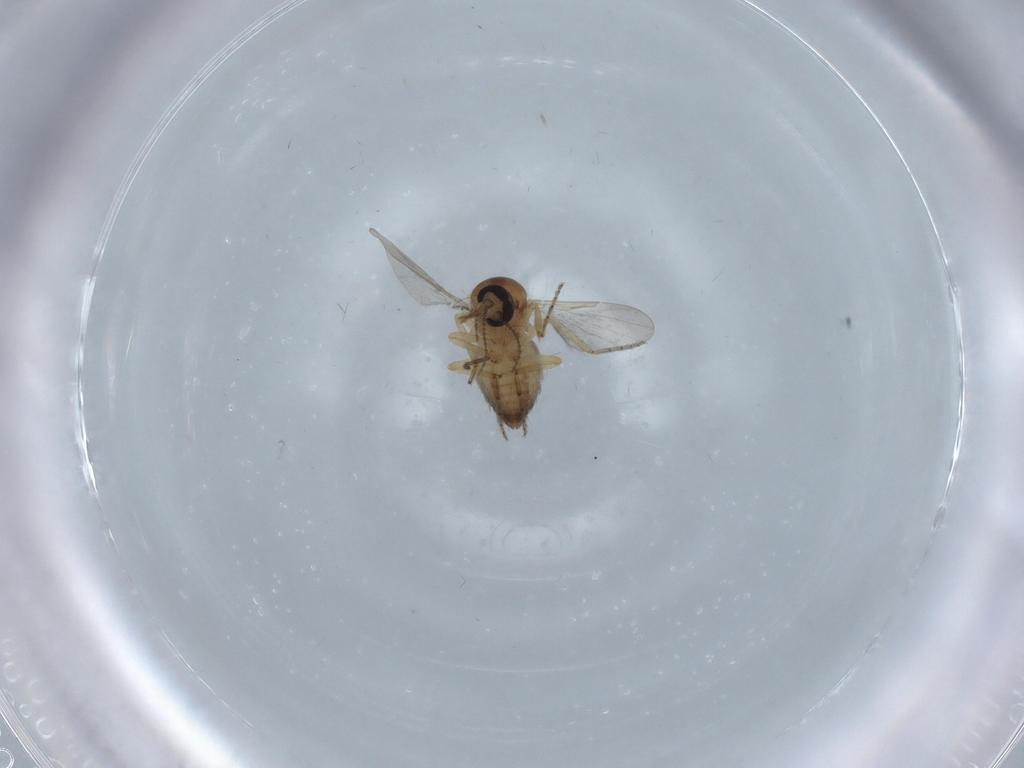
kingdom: Animalia
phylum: Arthropoda
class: Insecta
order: Diptera
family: Ceratopogonidae
